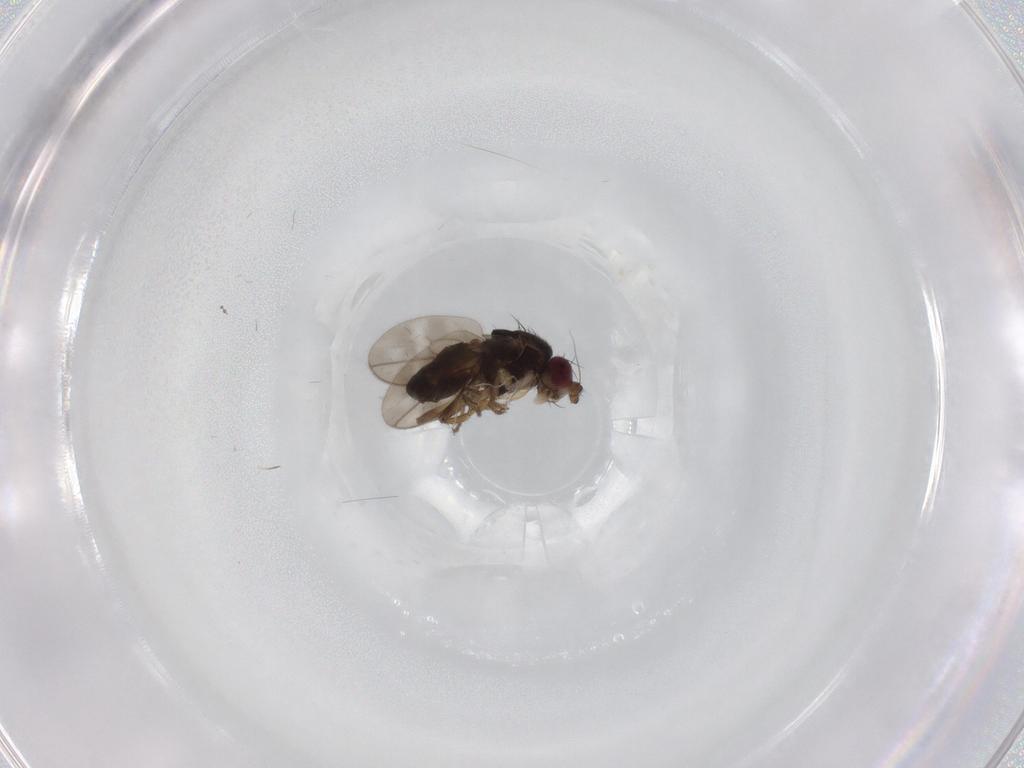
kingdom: Animalia
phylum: Arthropoda
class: Insecta
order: Diptera
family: Sphaeroceridae
